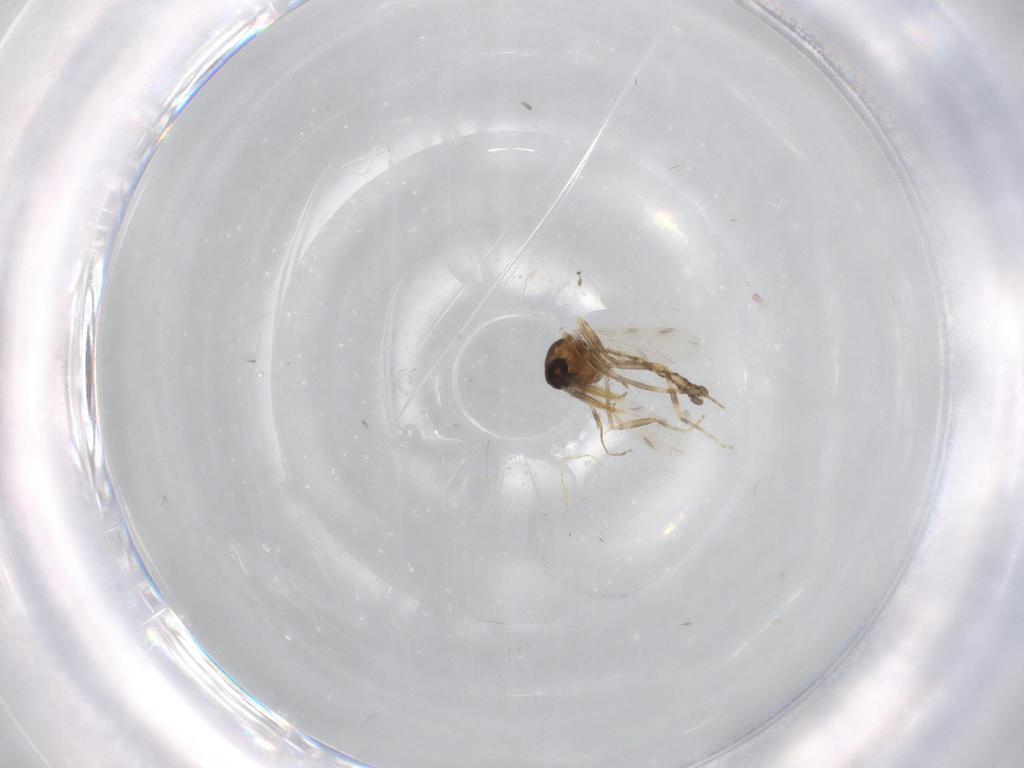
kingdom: Animalia
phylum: Arthropoda
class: Insecta
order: Diptera
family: Ceratopogonidae
